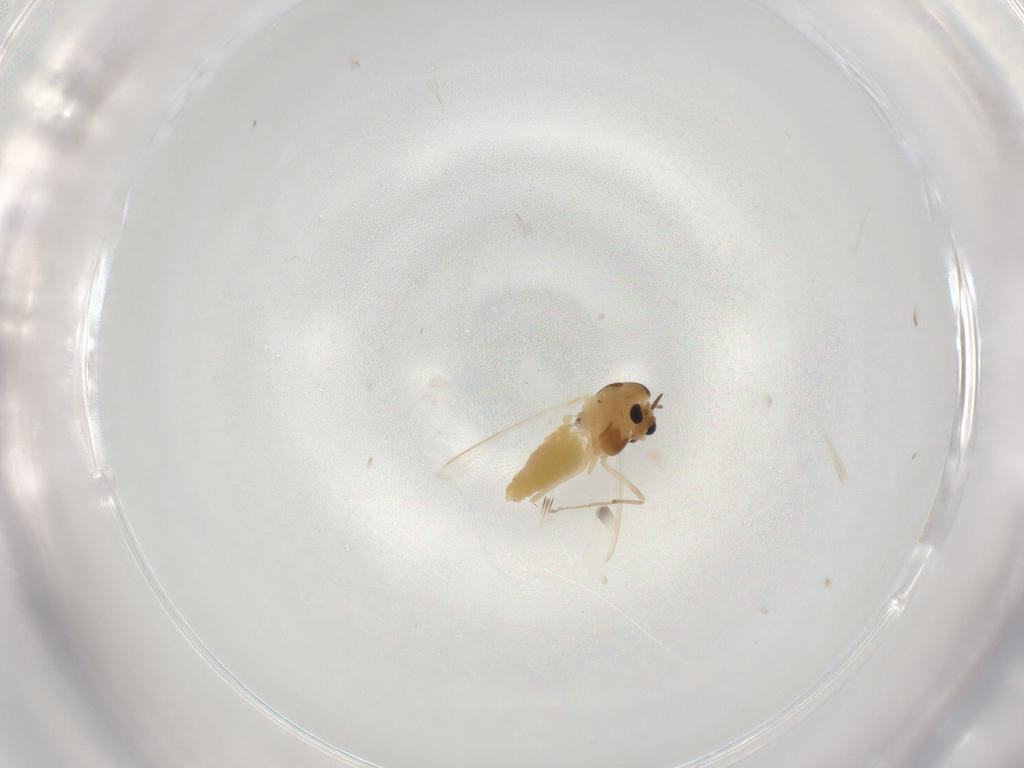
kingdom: Animalia
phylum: Arthropoda
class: Insecta
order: Diptera
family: Chironomidae
